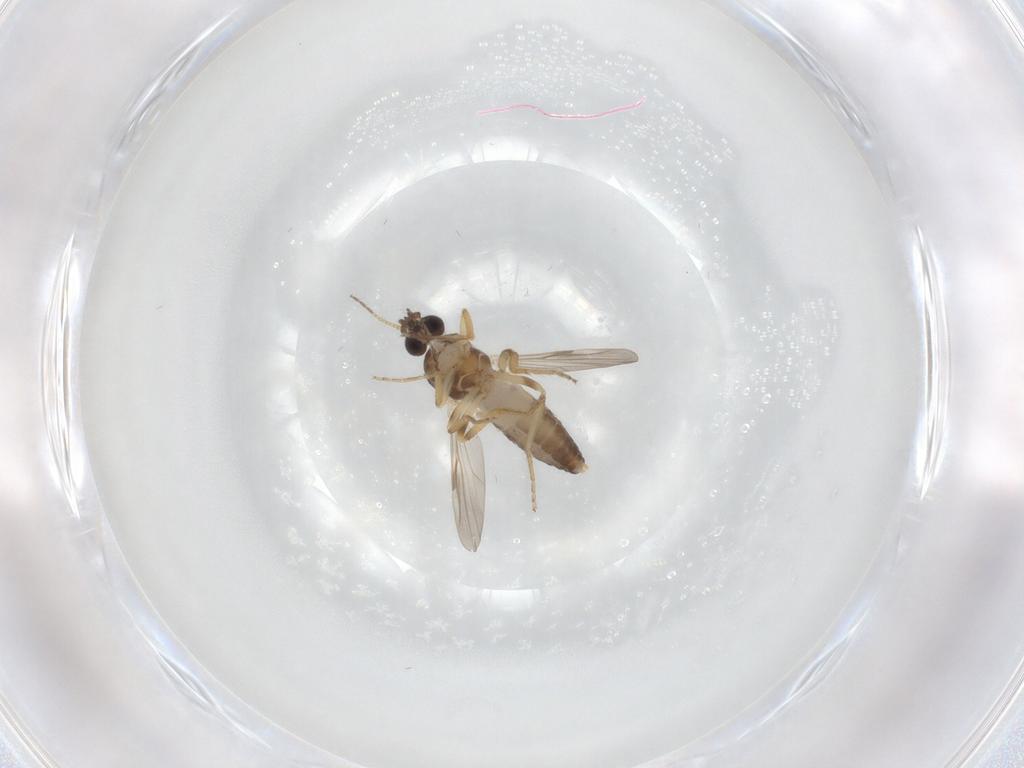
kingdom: Animalia
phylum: Arthropoda
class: Insecta
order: Diptera
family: Ceratopogonidae
